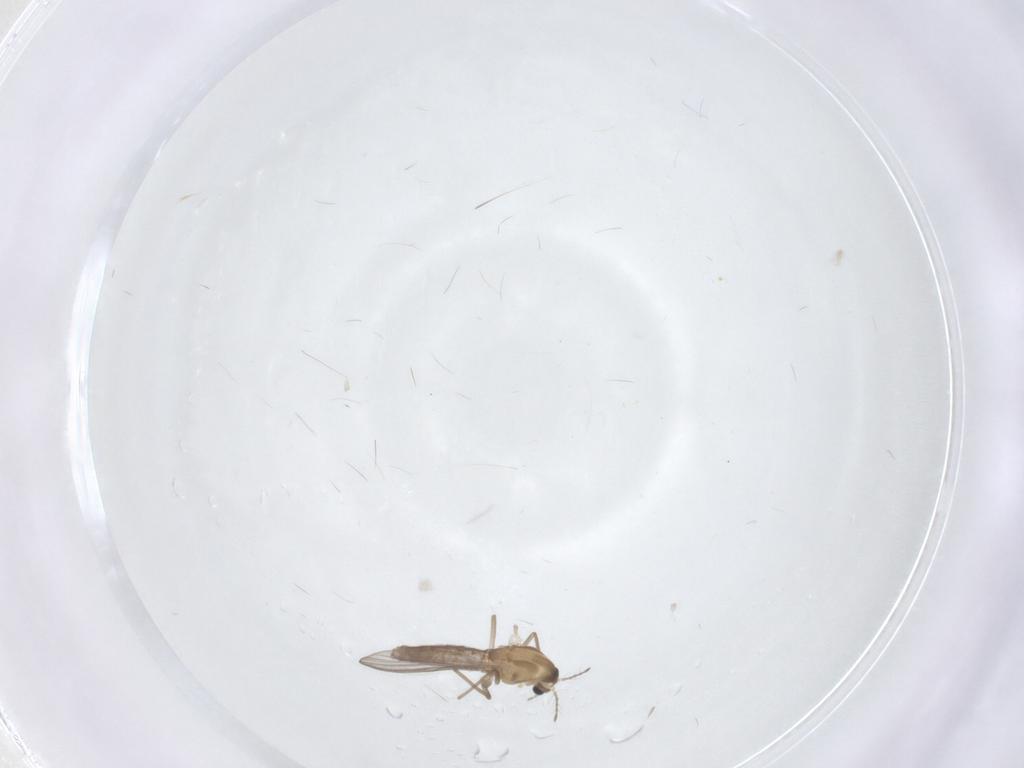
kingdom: Animalia
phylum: Arthropoda
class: Insecta
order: Diptera
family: Chironomidae
